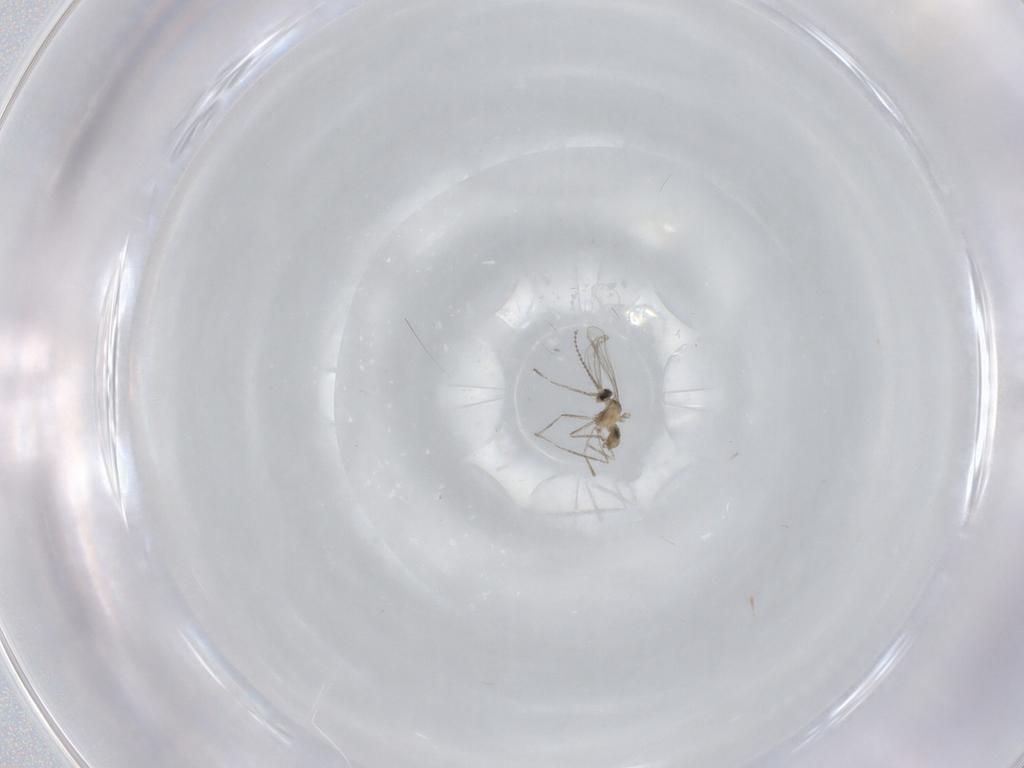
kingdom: Animalia
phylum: Arthropoda
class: Insecta
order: Diptera
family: Cecidomyiidae
